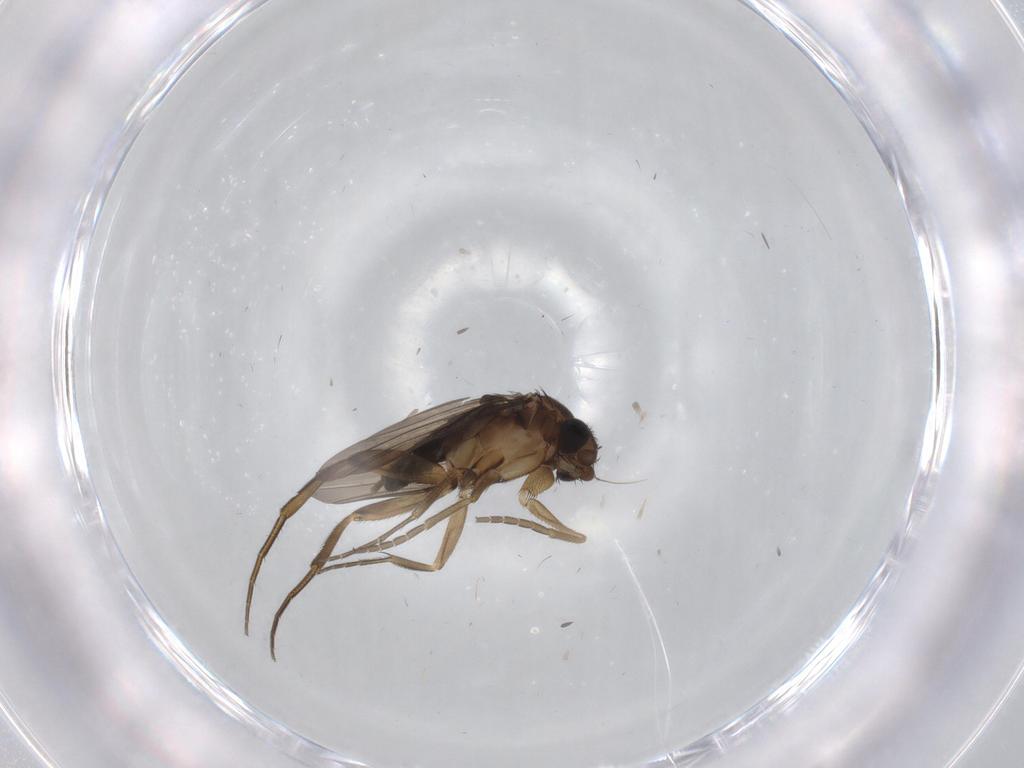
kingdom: Animalia
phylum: Arthropoda
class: Insecta
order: Diptera
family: Phoridae
